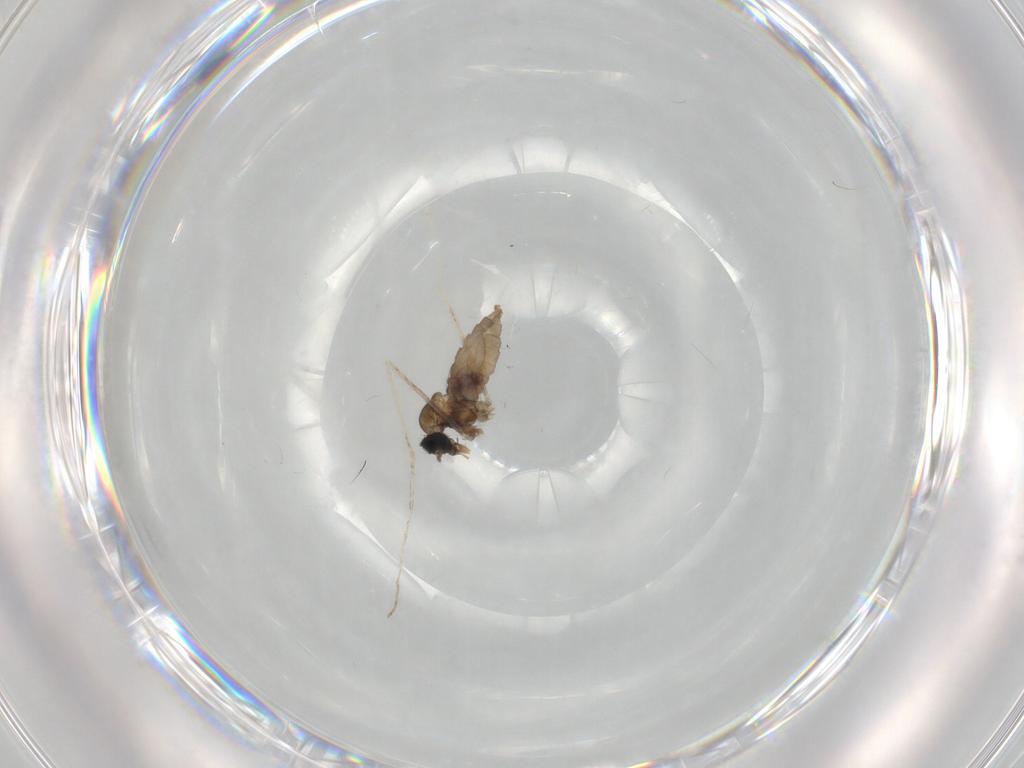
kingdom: Animalia
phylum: Arthropoda
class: Insecta
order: Diptera
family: Cecidomyiidae
